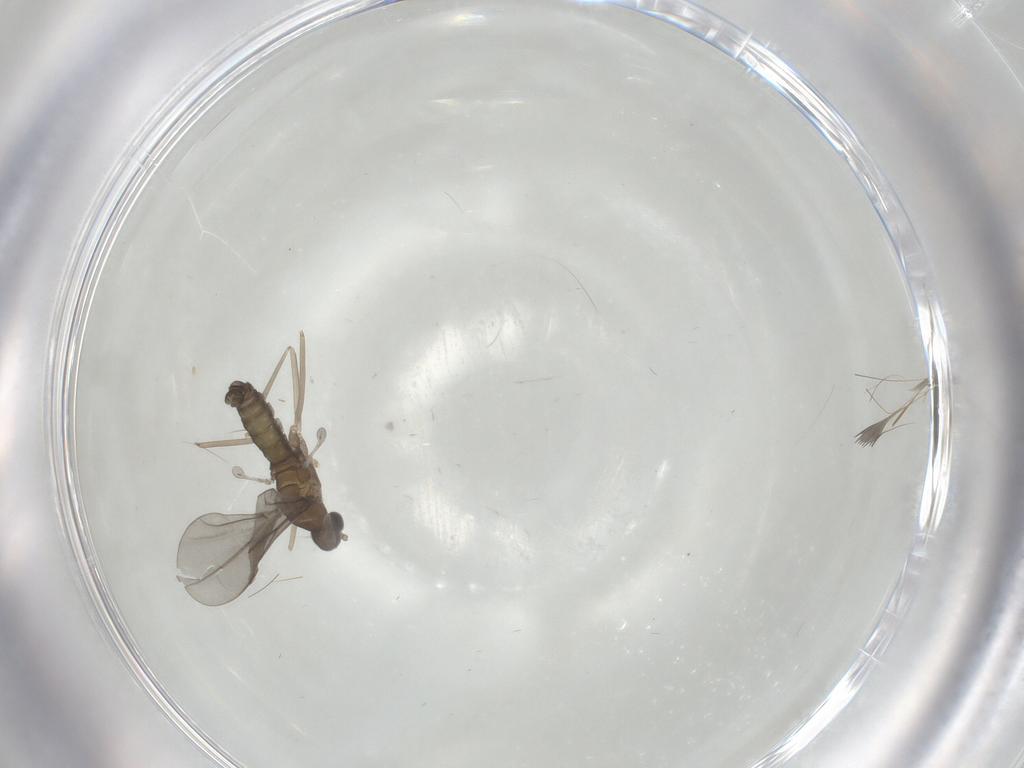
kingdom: Animalia
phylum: Arthropoda
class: Insecta
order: Diptera
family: Cecidomyiidae
